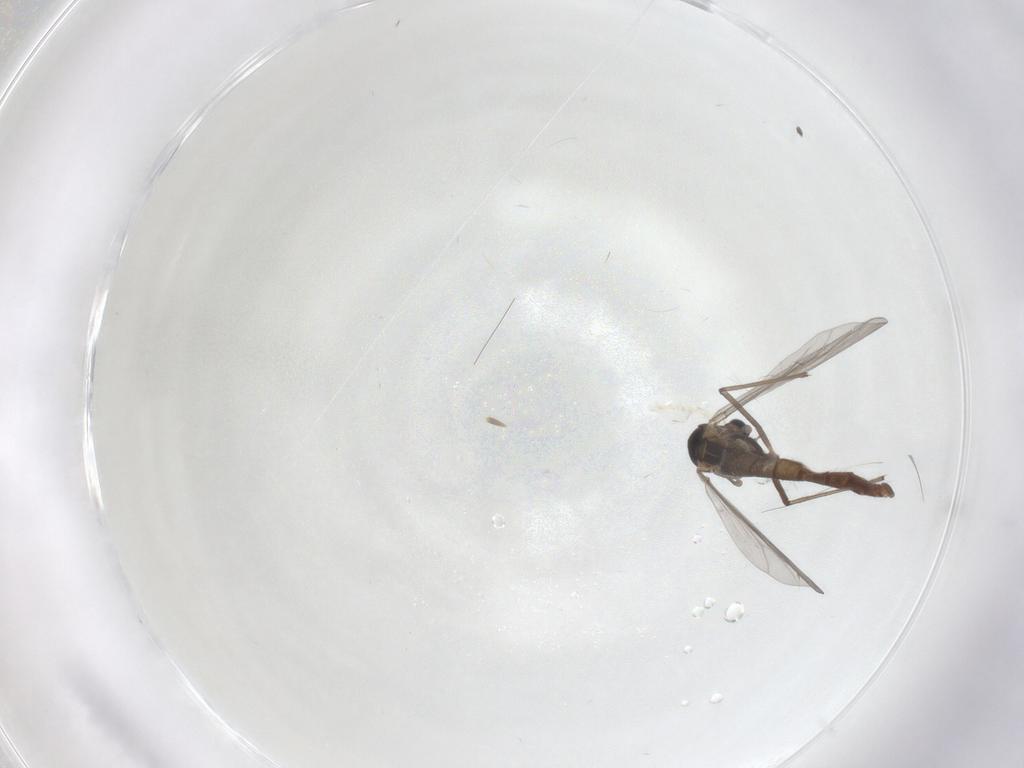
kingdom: Animalia
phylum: Arthropoda
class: Insecta
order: Diptera
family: Chironomidae
